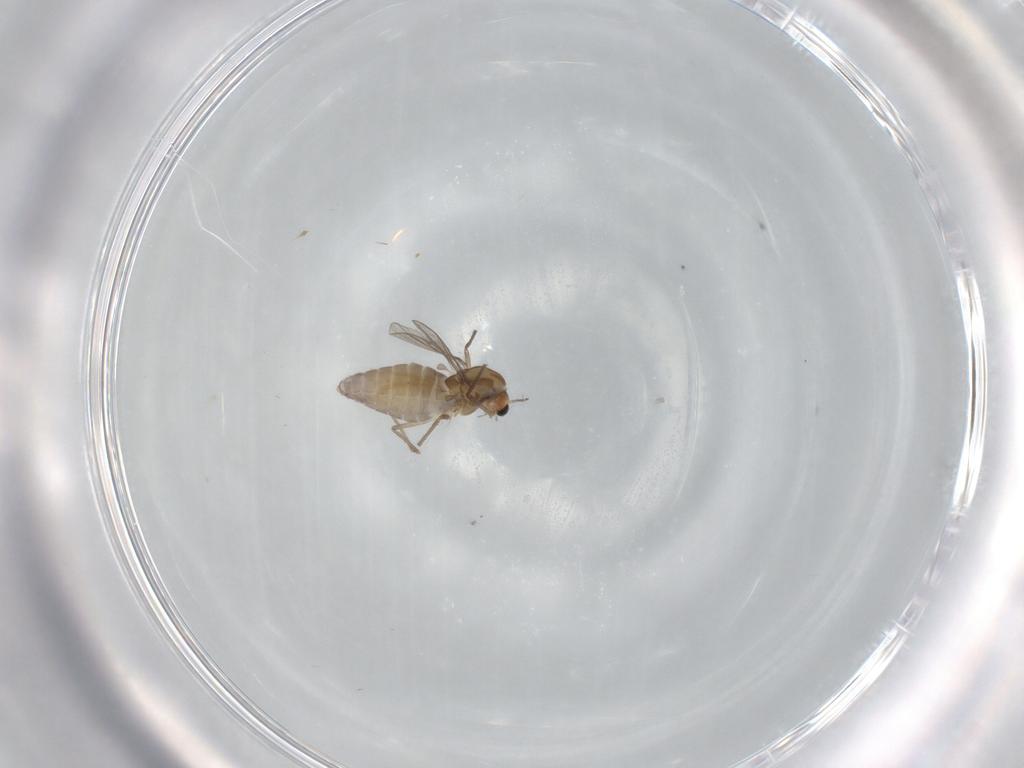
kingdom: Animalia
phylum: Arthropoda
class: Insecta
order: Diptera
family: Chironomidae
